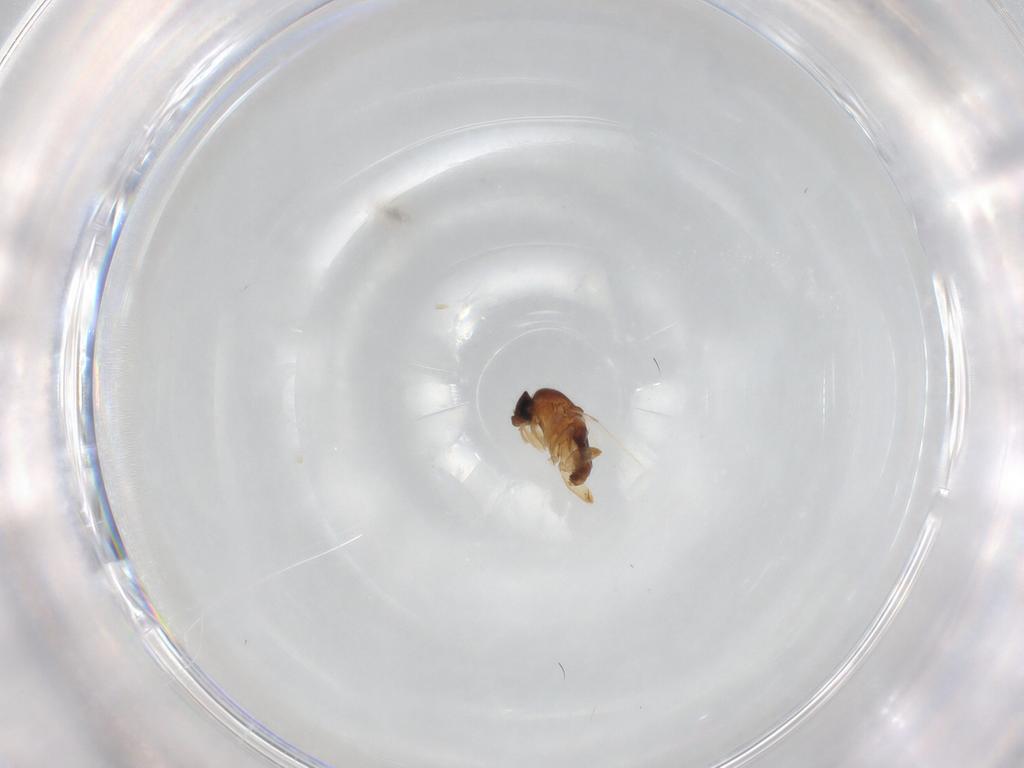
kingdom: Animalia
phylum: Arthropoda
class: Insecta
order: Diptera
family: Phoridae
